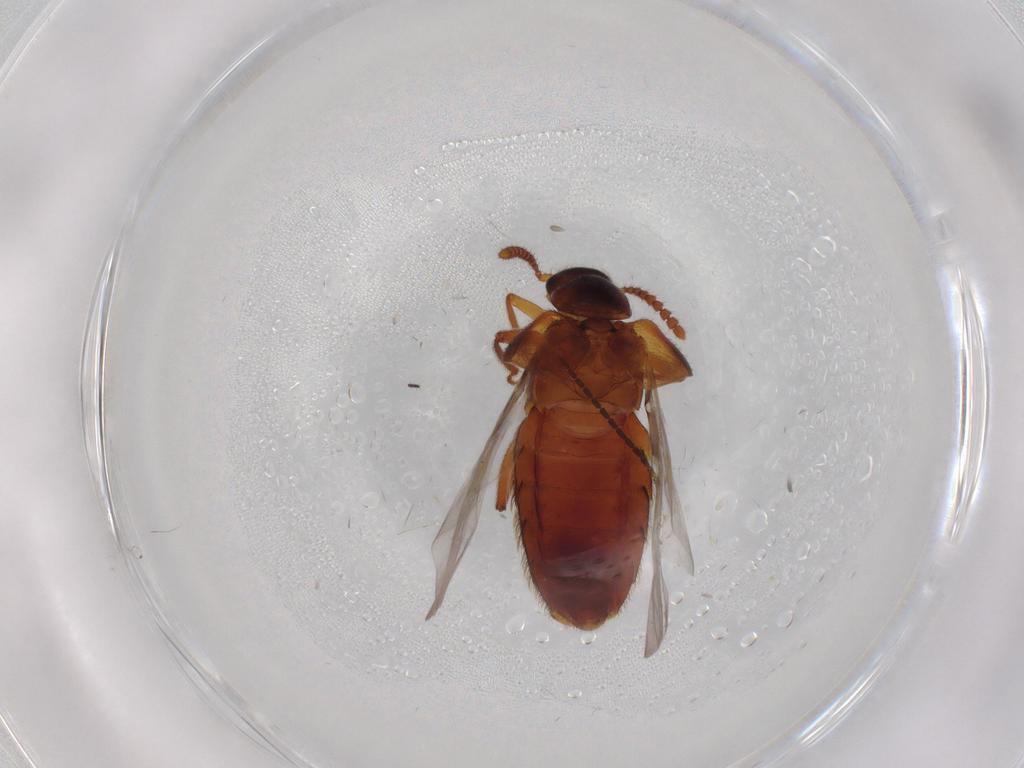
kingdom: Animalia
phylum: Arthropoda
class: Insecta
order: Coleoptera
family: Staphylinidae
